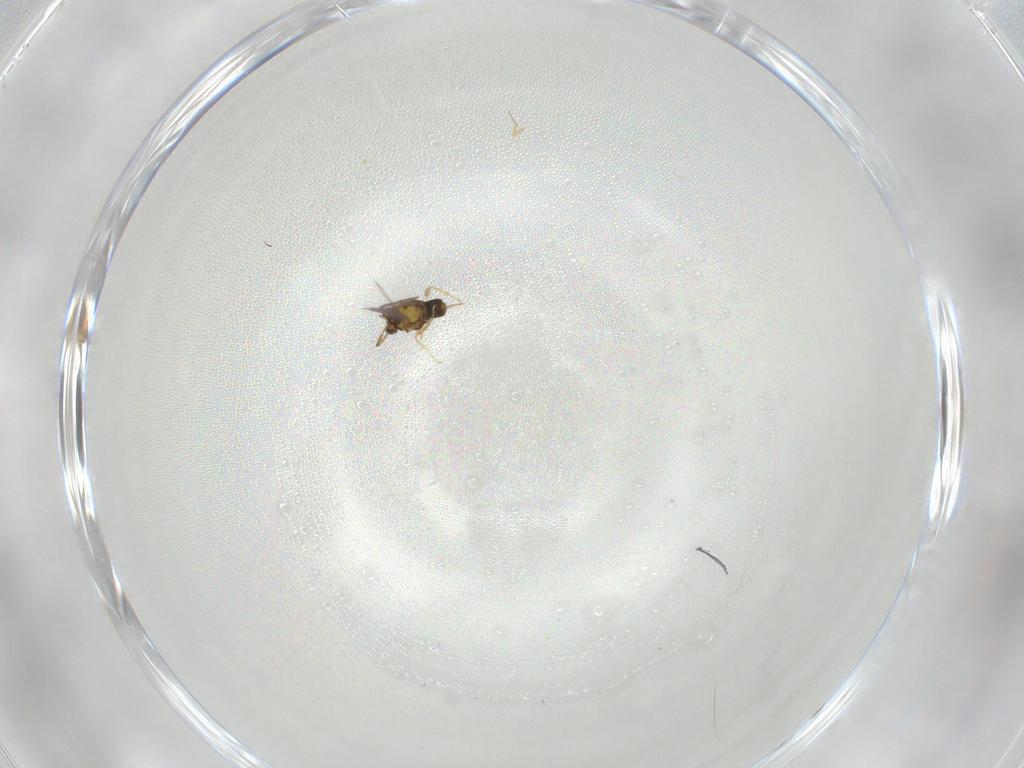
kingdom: Animalia
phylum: Arthropoda
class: Insecta
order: Hymenoptera
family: Aphelinidae
